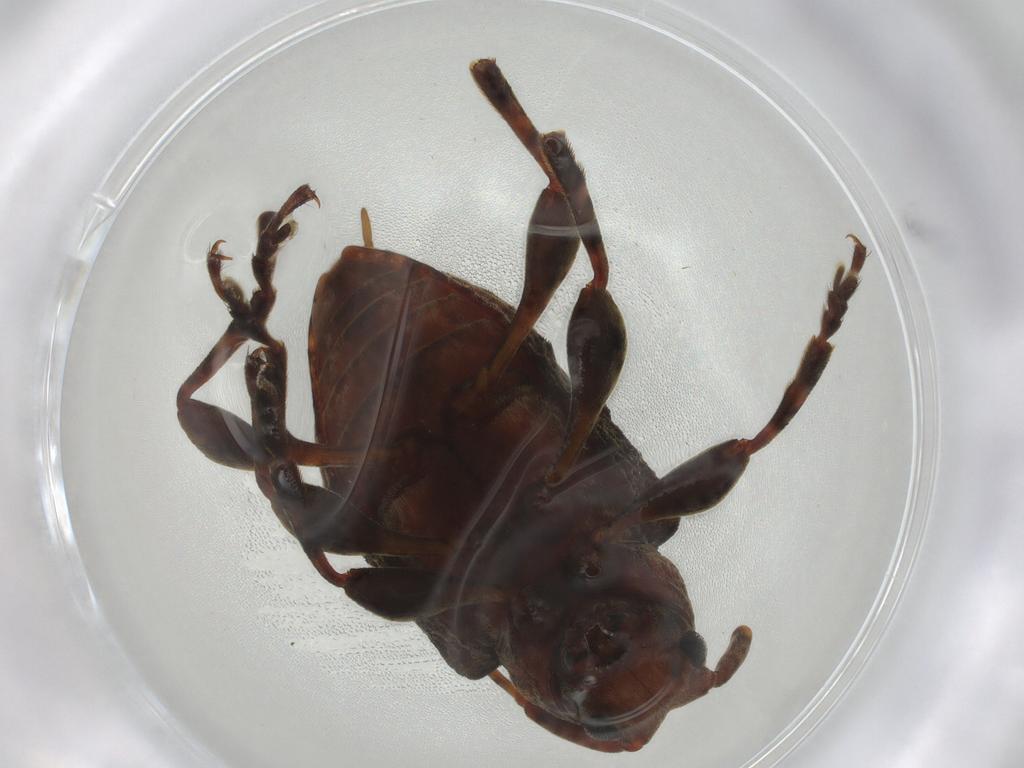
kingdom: Animalia
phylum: Arthropoda
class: Insecta
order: Coleoptera
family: Cerambycidae
